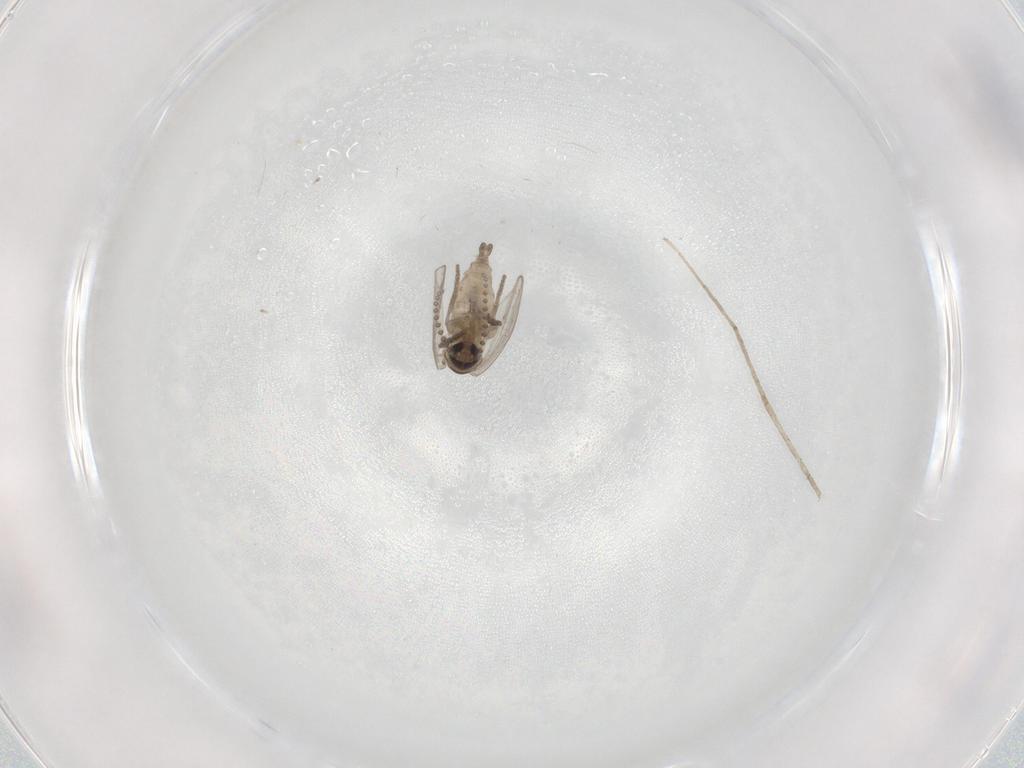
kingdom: Animalia
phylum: Arthropoda
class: Insecta
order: Diptera
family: Psychodidae
